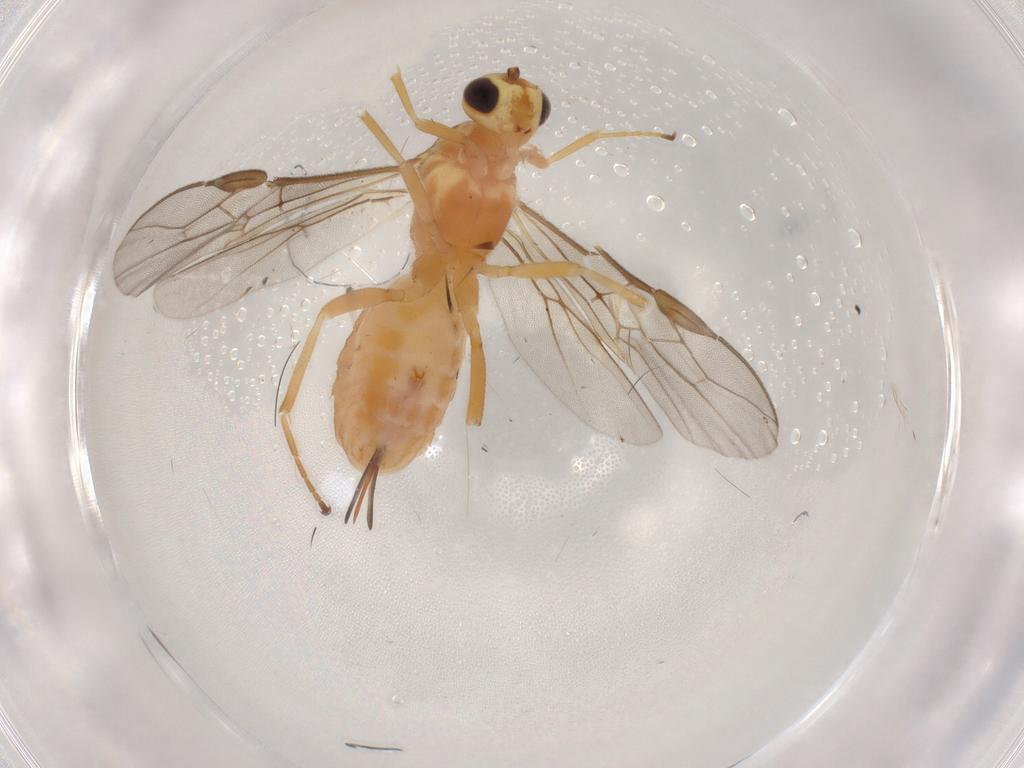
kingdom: Animalia
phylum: Arthropoda
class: Insecta
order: Hymenoptera
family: Braconidae
